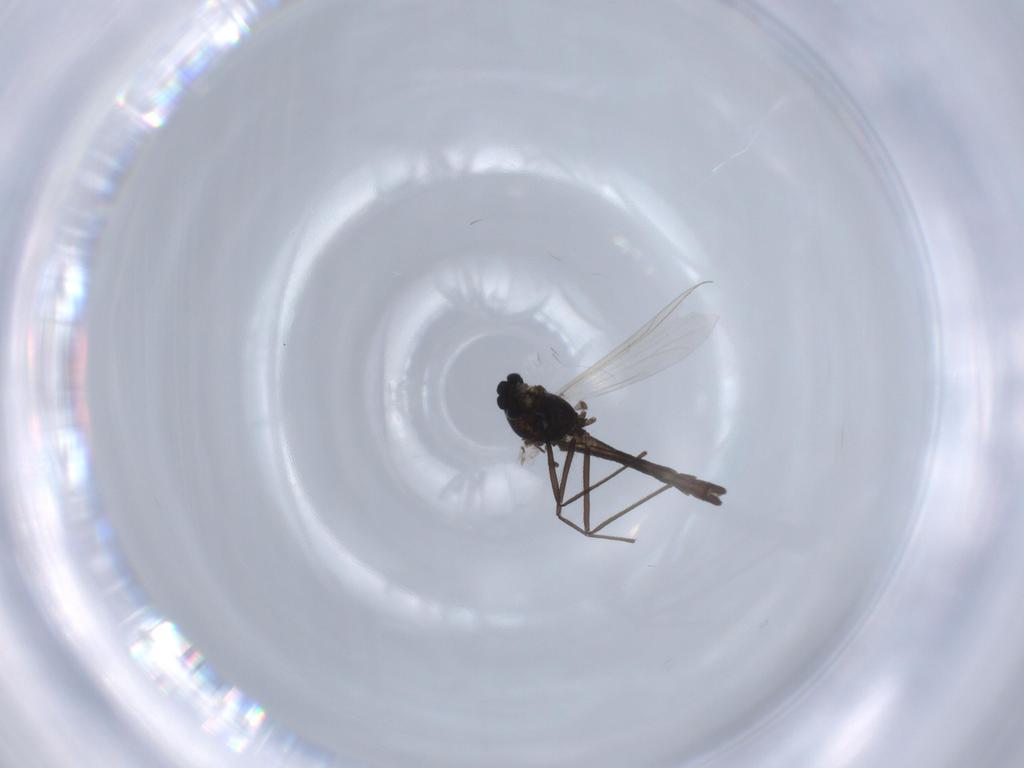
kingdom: Animalia
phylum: Arthropoda
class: Insecta
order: Diptera
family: Chironomidae
